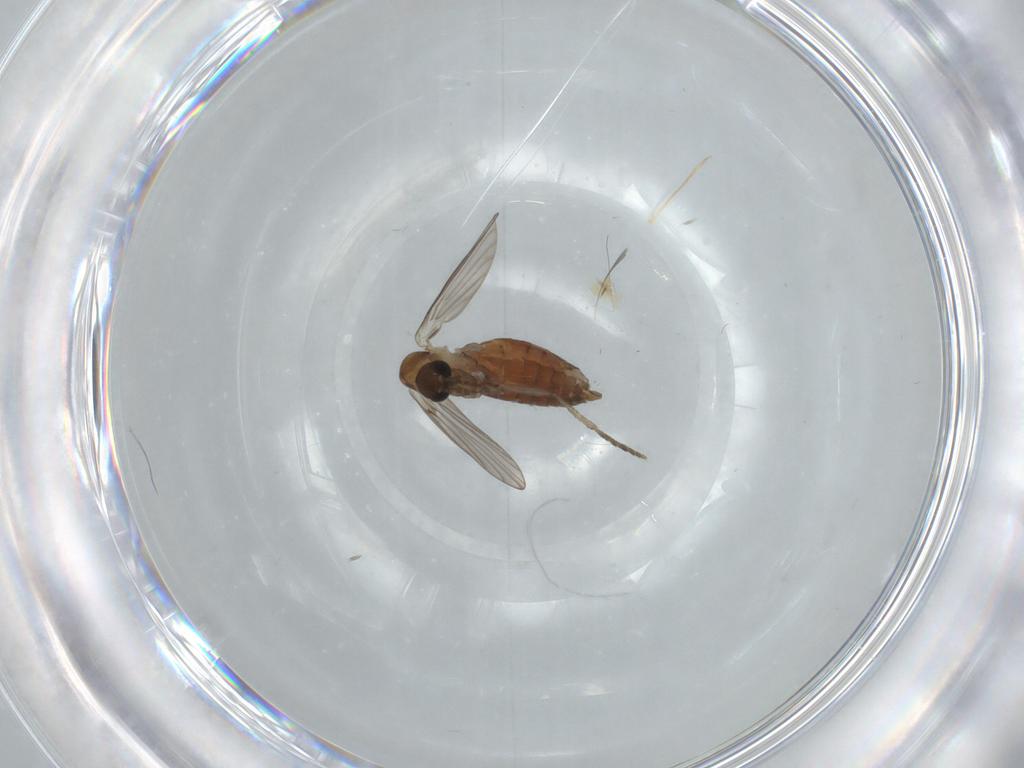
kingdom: Animalia
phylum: Arthropoda
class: Insecta
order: Diptera
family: Psychodidae
